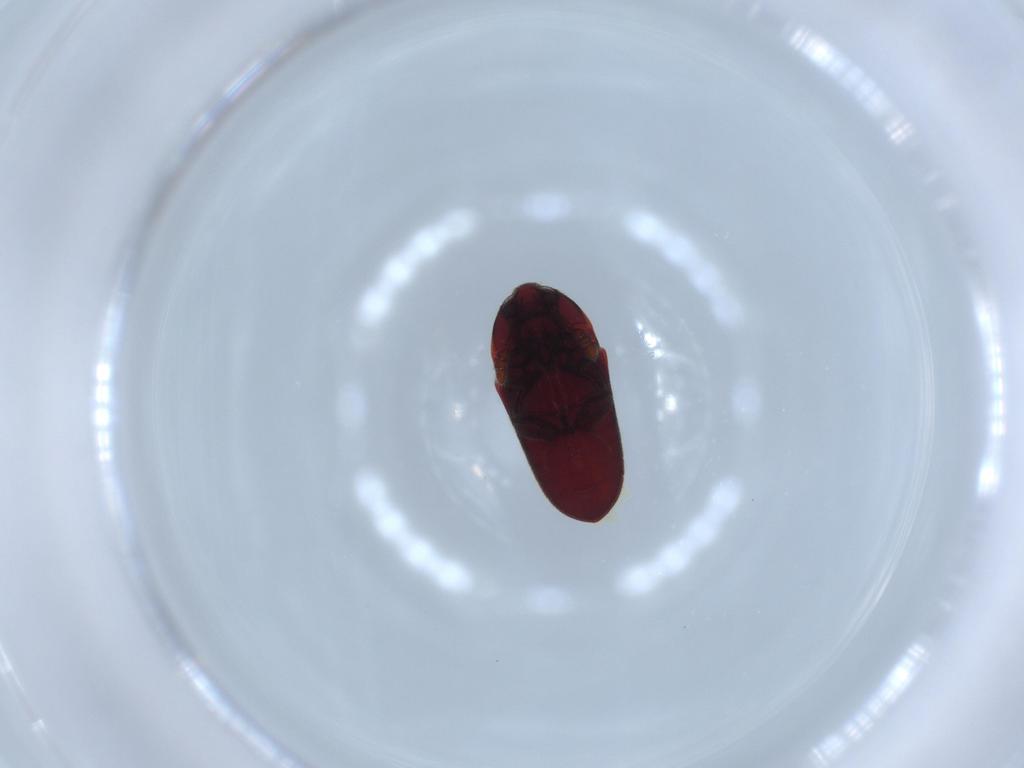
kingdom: Animalia
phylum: Arthropoda
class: Insecta
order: Coleoptera
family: Throscidae
